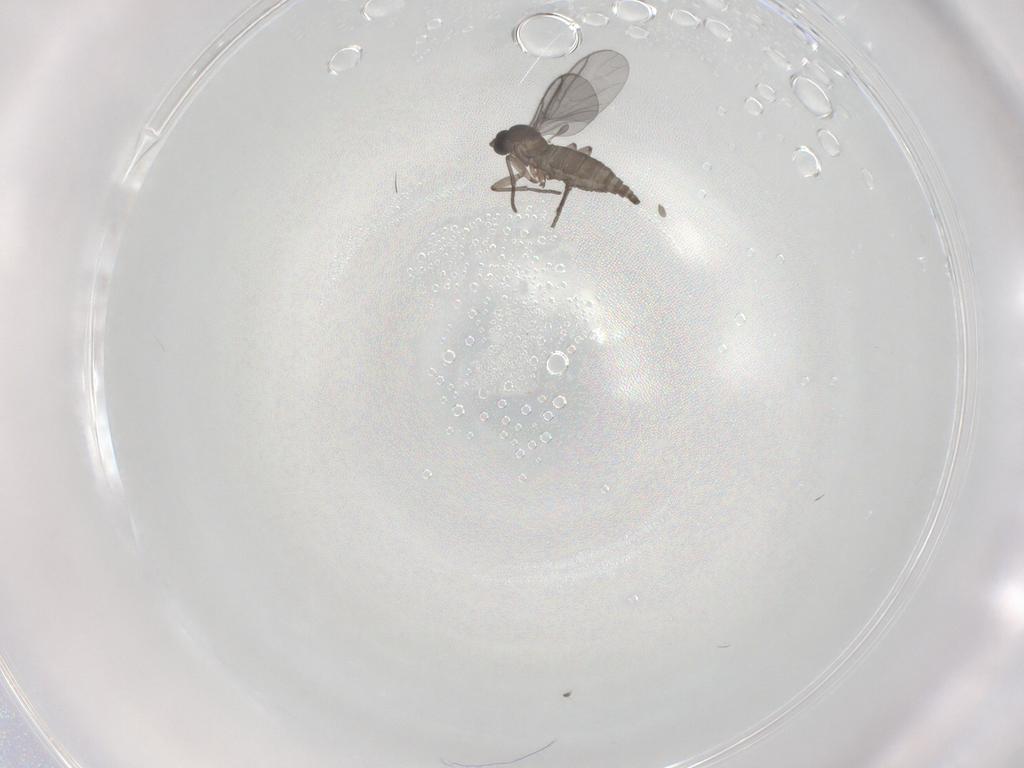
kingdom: Animalia
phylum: Arthropoda
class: Insecta
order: Diptera
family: Sciaridae
